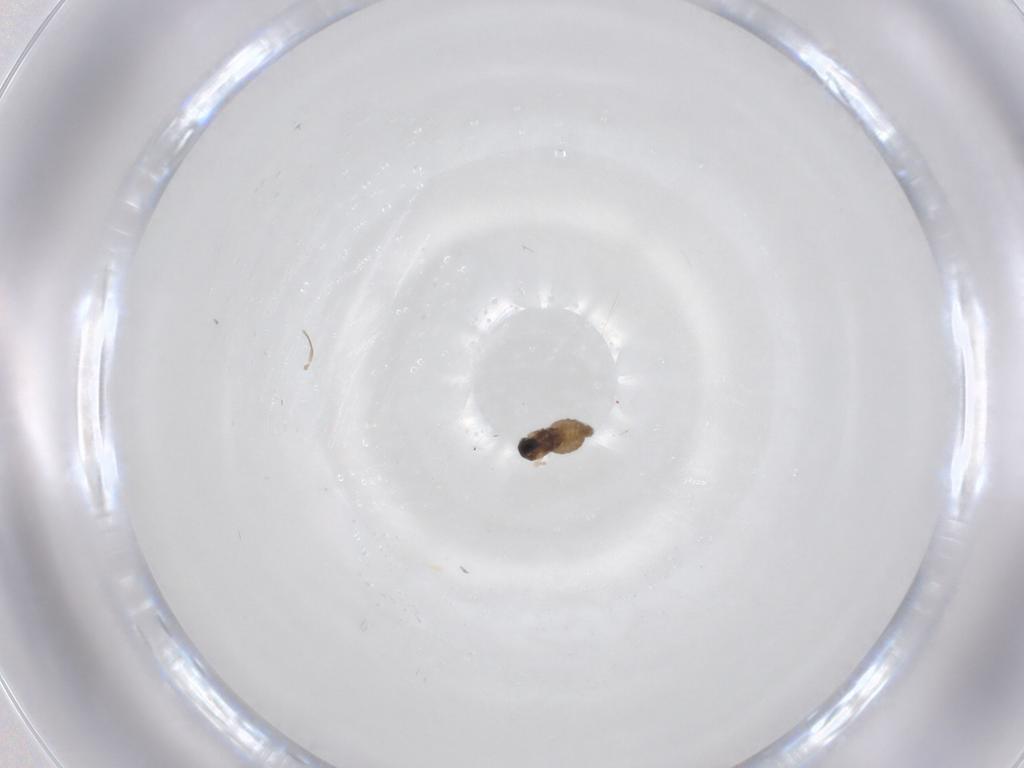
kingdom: Animalia
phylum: Arthropoda
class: Insecta
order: Diptera
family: Cecidomyiidae
